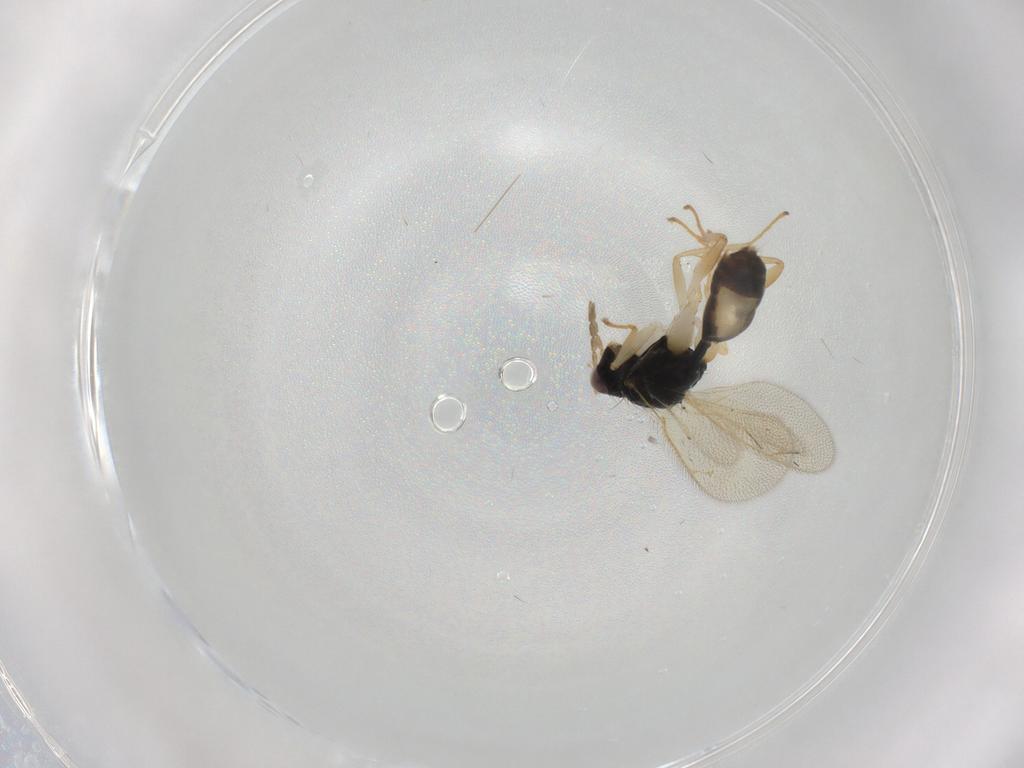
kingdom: Animalia
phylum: Arthropoda
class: Insecta
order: Hymenoptera
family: Eulophidae
